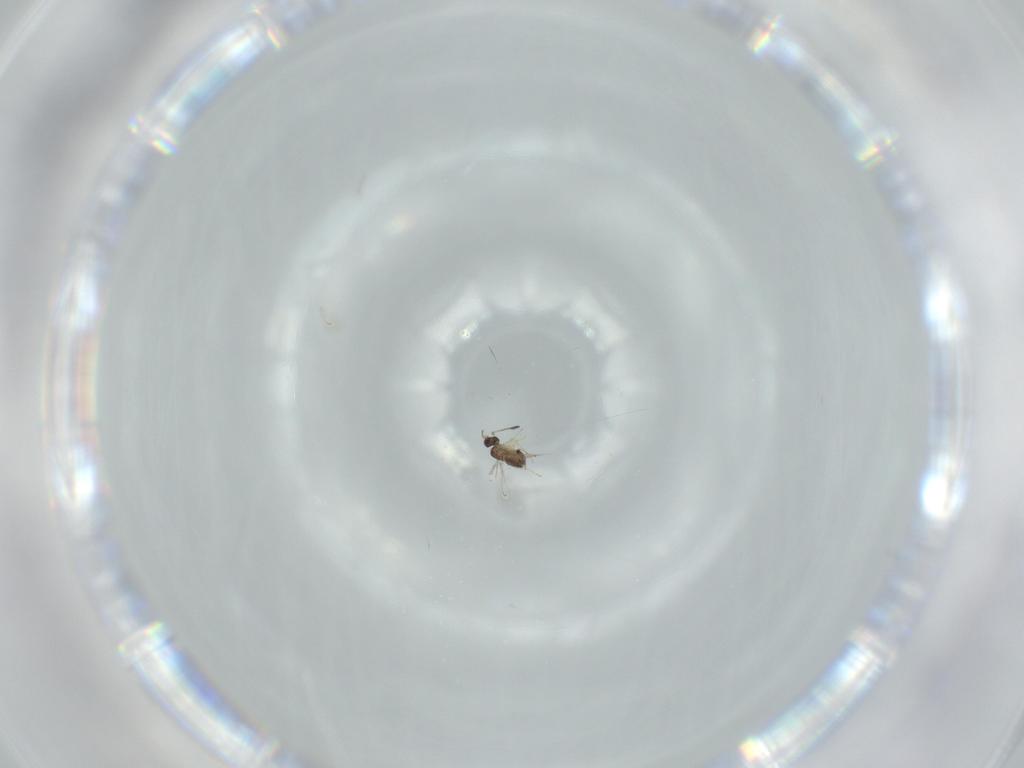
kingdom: Animalia
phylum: Arthropoda
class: Insecta
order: Hymenoptera
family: Mymaridae
